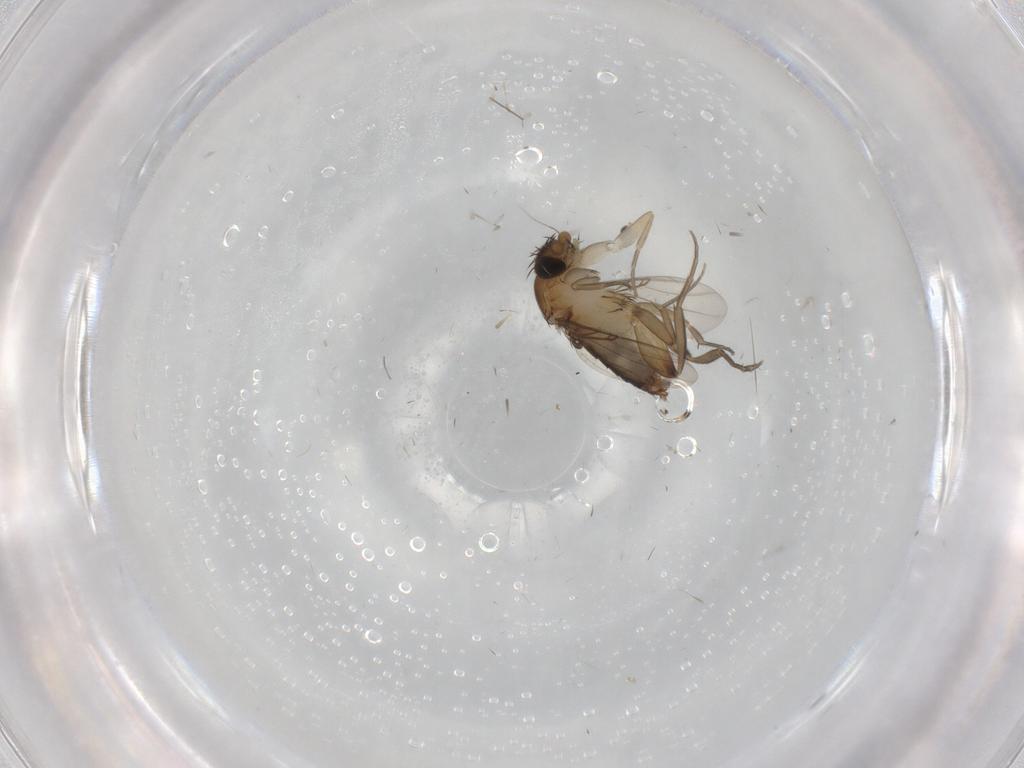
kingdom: Animalia
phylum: Arthropoda
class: Insecta
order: Diptera
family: Phoridae
